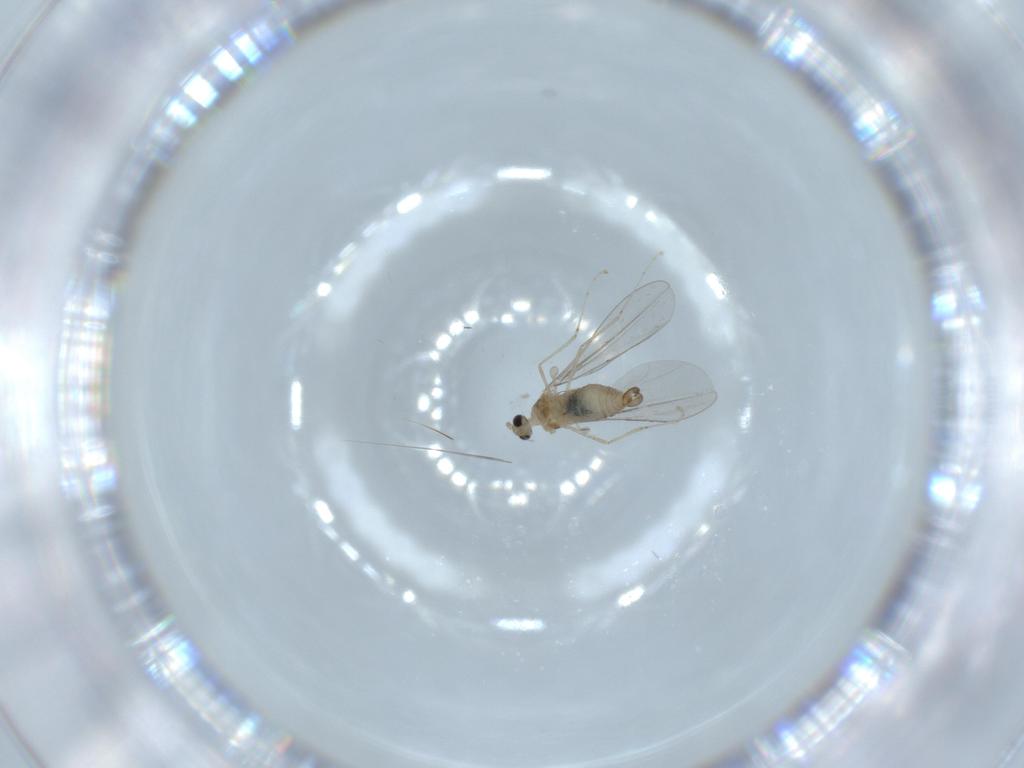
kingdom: Animalia
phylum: Arthropoda
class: Insecta
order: Diptera
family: Cecidomyiidae
